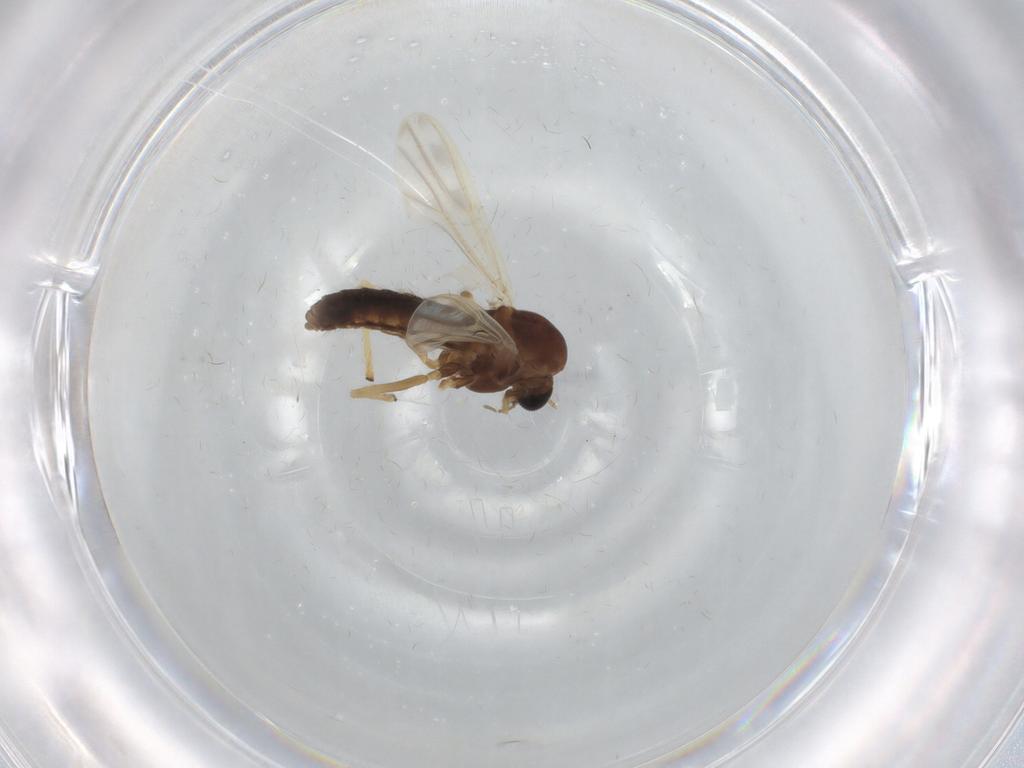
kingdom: Animalia
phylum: Arthropoda
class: Insecta
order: Diptera
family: Chironomidae
